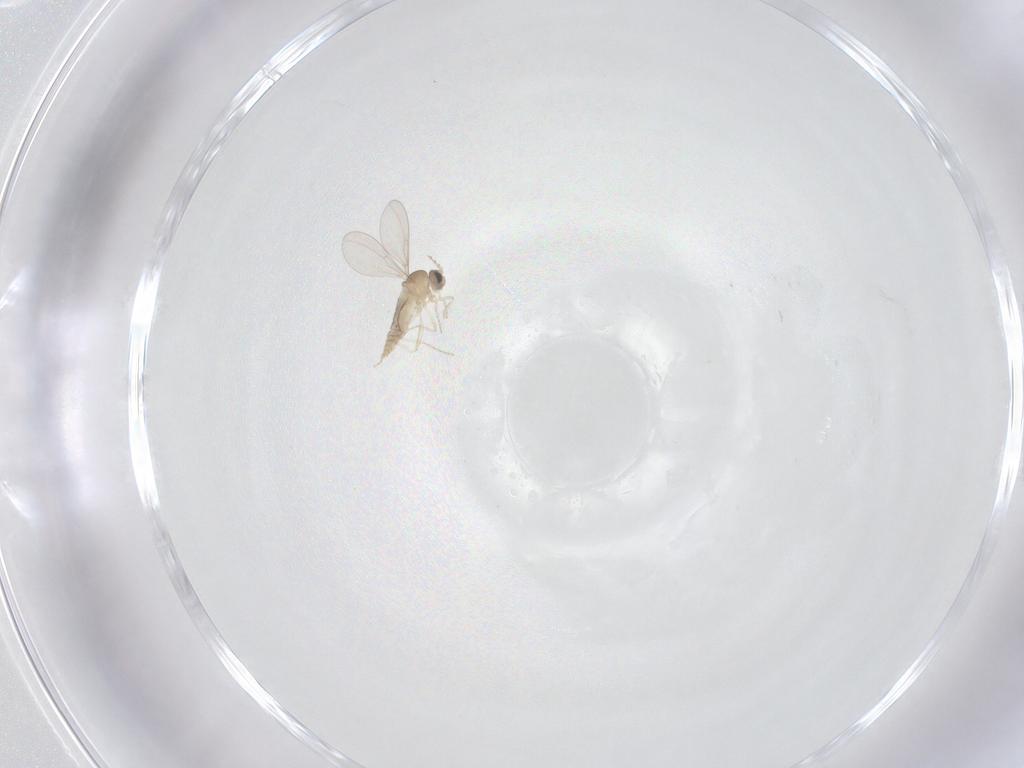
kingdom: Animalia
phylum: Arthropoda
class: Insecta
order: Diptera
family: Cecidomyiidae
